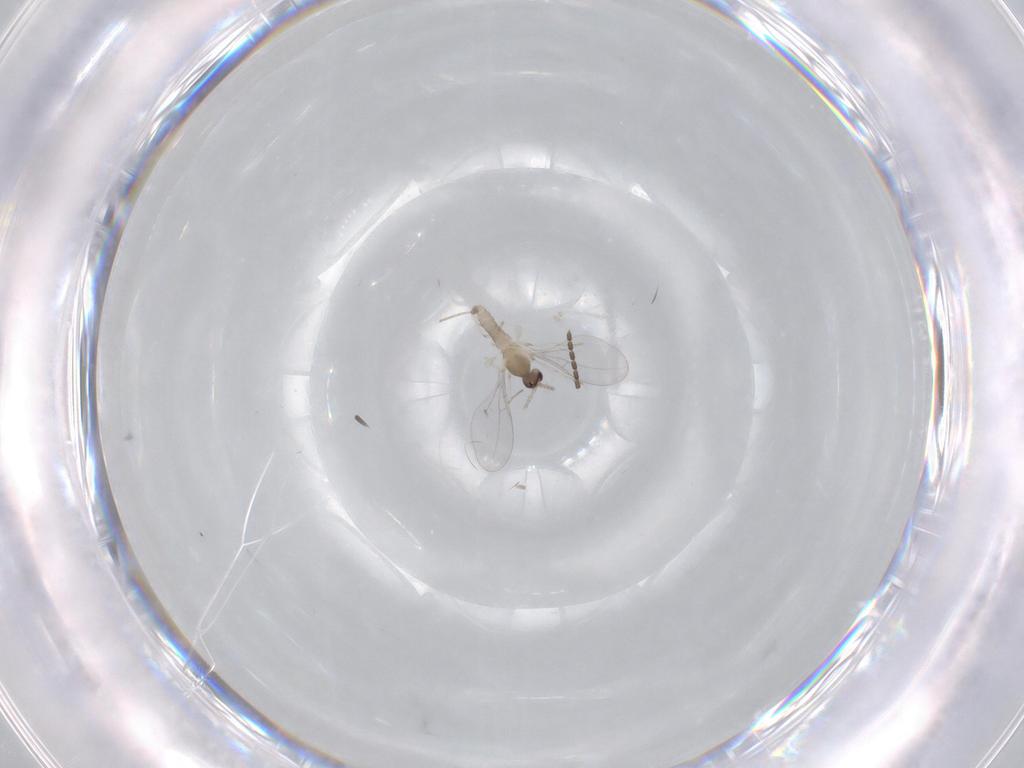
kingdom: Animalia
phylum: Arthropoda
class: Insecta
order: Diptera
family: Cecidomyiidae
